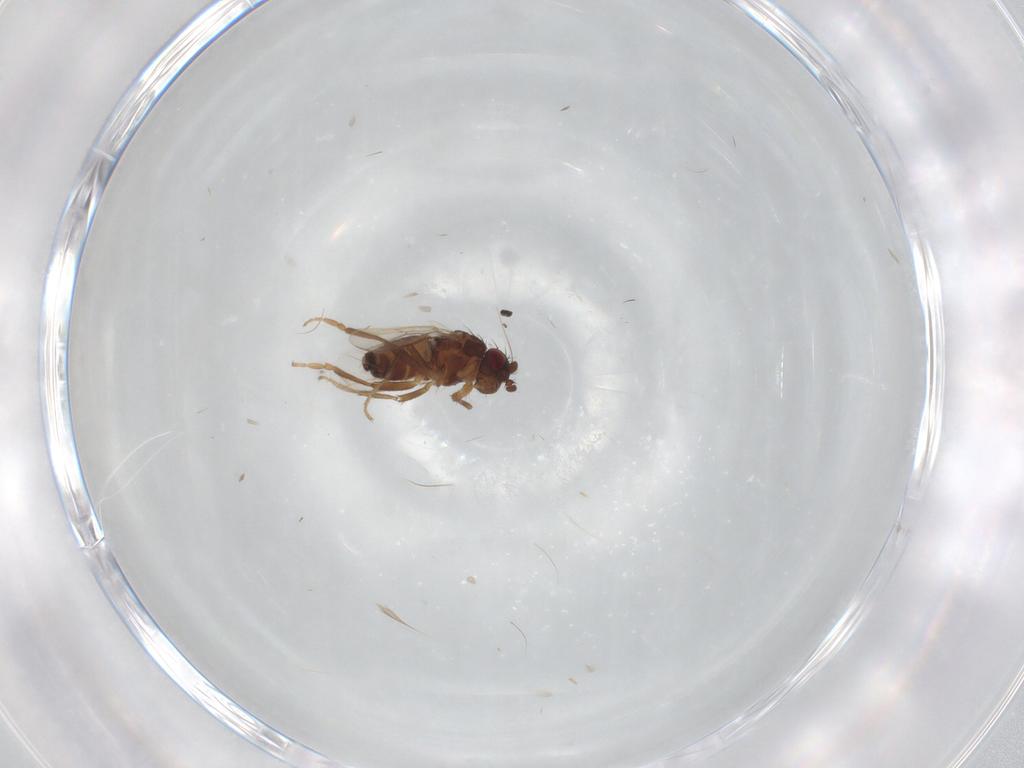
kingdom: Animalia
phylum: Arthropoda
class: Insecta
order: Diptera
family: Sphaeroceridae
